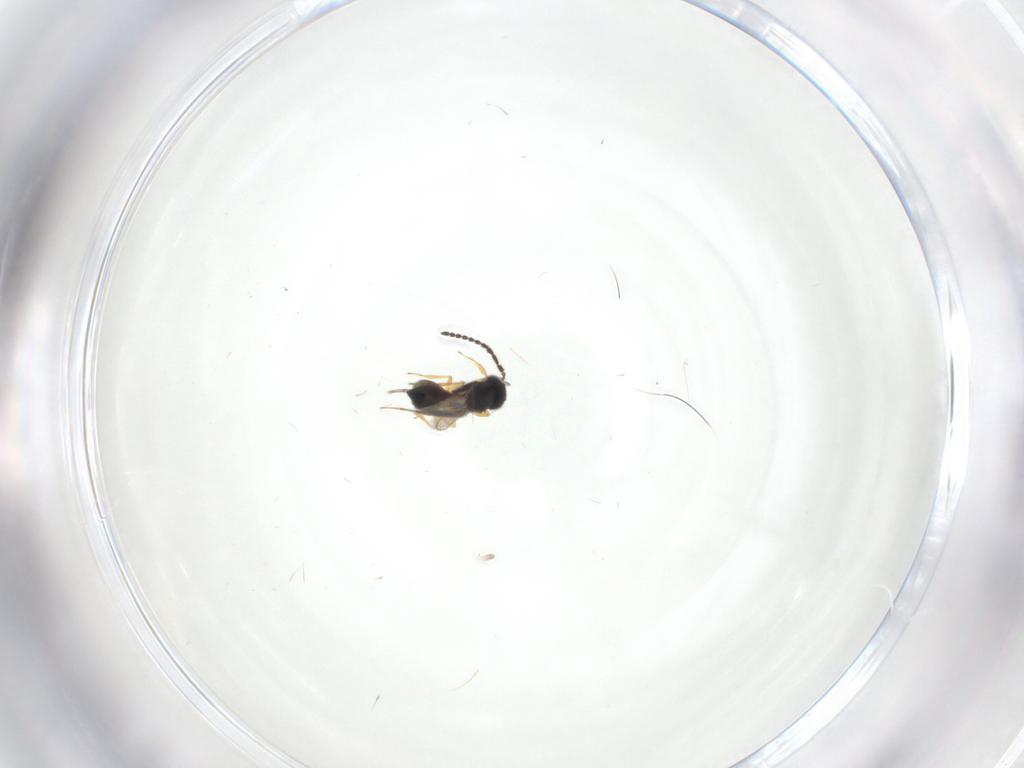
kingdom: Animalia
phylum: Arthropoda
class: Insecta
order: Hymenoptera
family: Scelionidae
